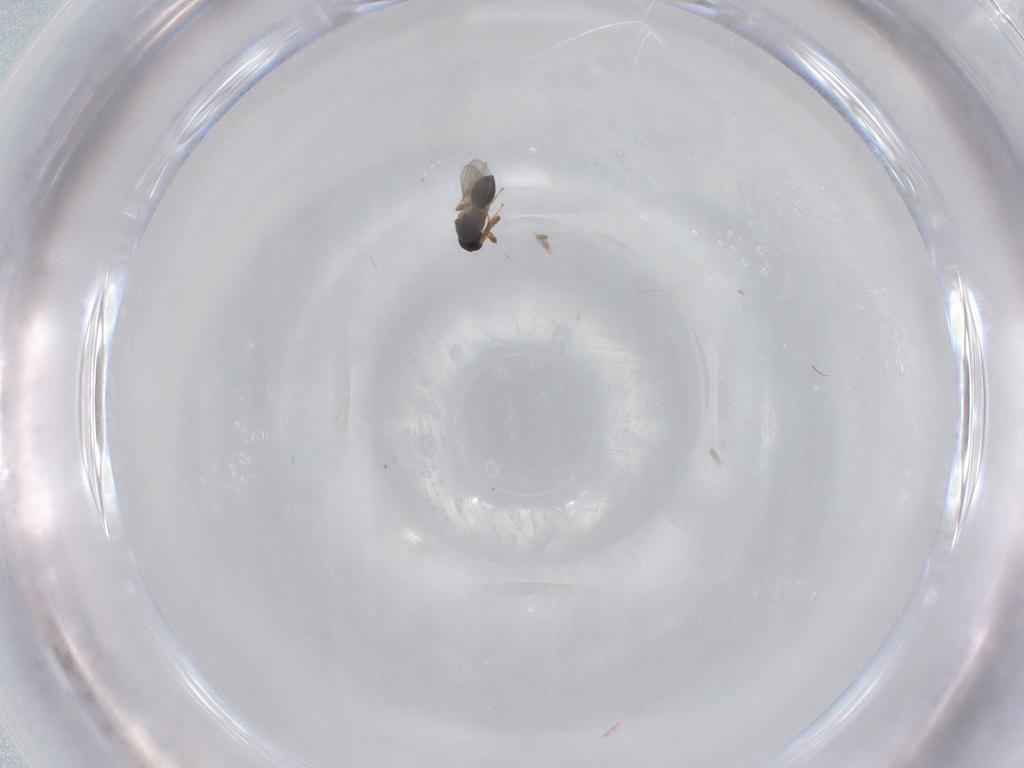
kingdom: Animalia
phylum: Arthropoda
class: Insecta
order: Hymenoptera
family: Platygastridae
